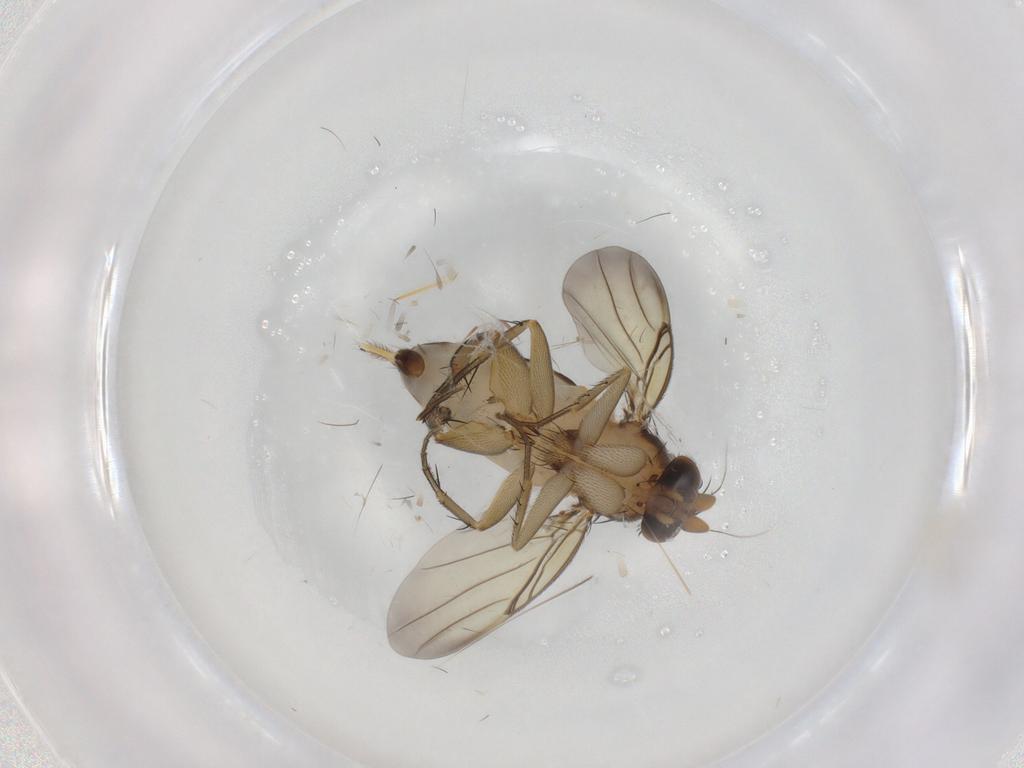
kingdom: Animalia
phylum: Arthropoda
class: Insecta
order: Diptera
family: Phoridae
